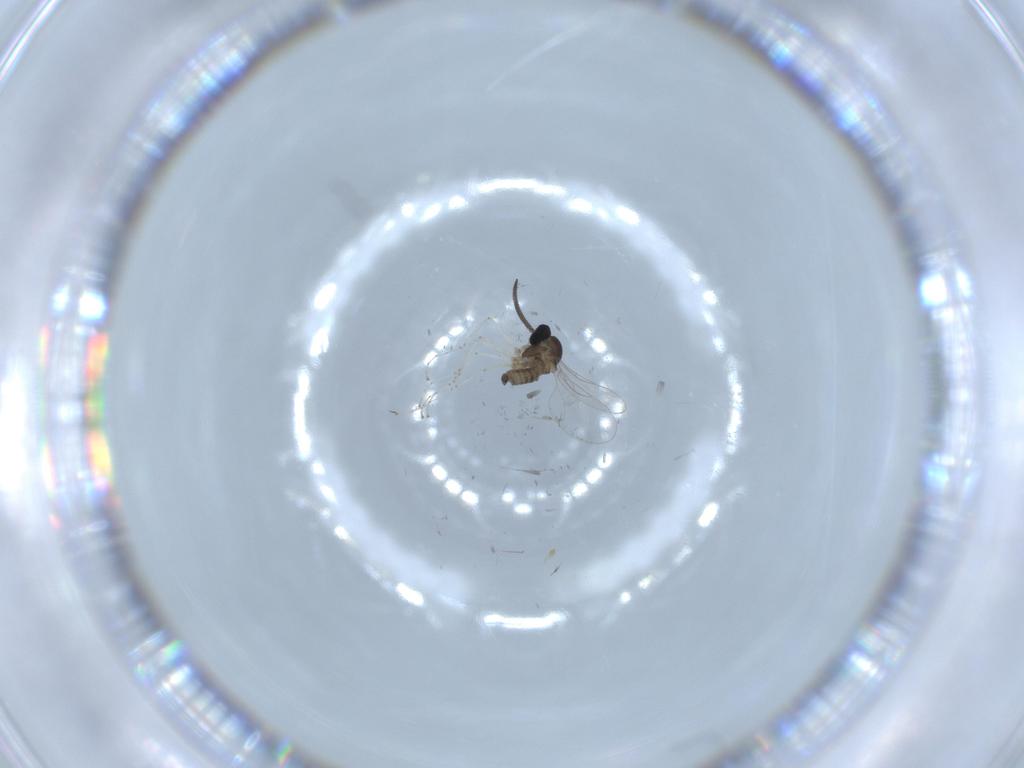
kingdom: Animalia
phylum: Arthropoda
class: Insecta
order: Diptera
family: Cecidomyiidae
